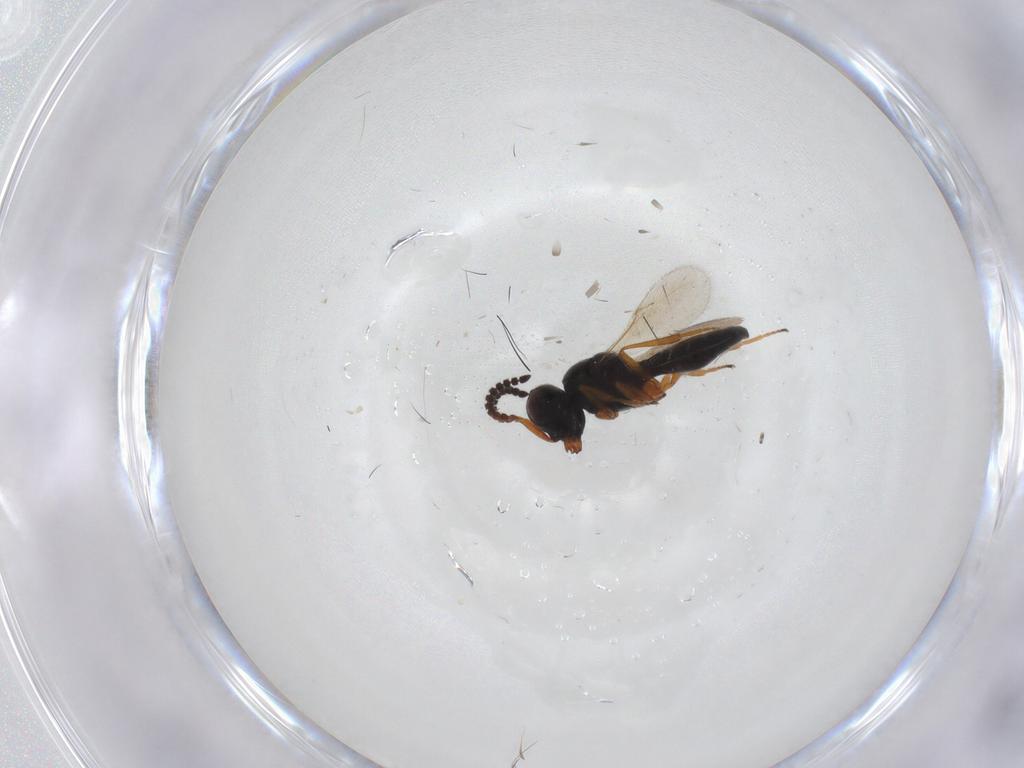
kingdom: Animalia
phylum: Arthropoda
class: Insecta
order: Hymenoptera
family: Scelionidae
